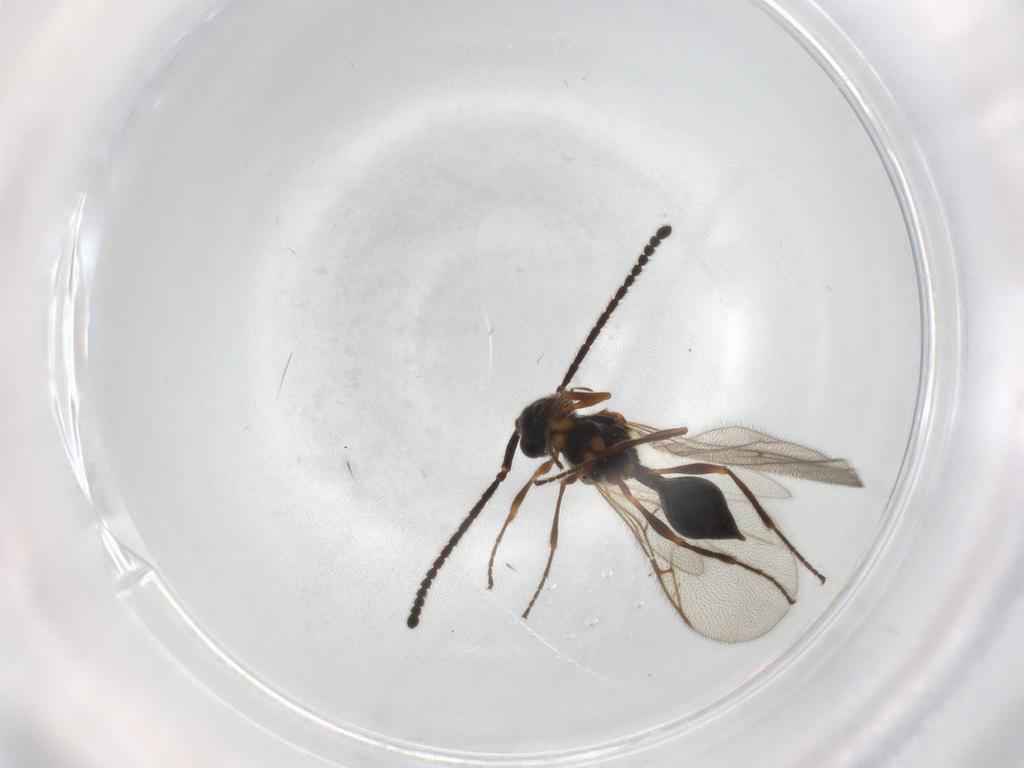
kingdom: Animalia
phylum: Arthropoda
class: Insecta
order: Hymenoptera
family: Diapriidae
